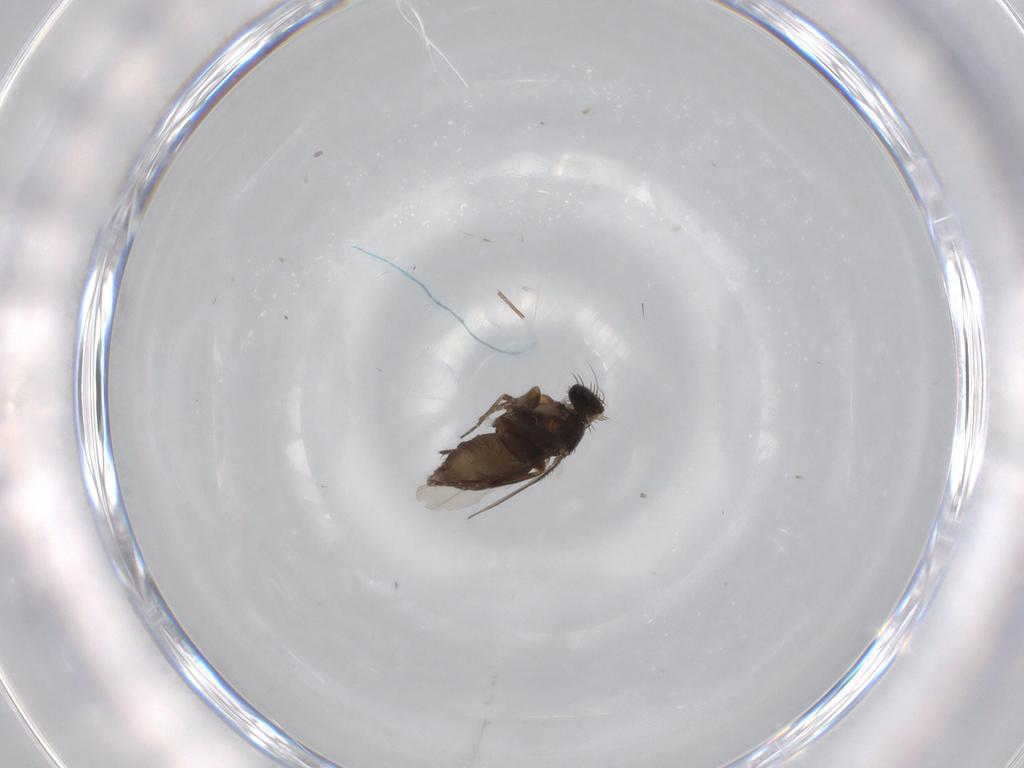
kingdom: Animalia
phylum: Arthropoda
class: Insecta
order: Diptera
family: Phoridae
